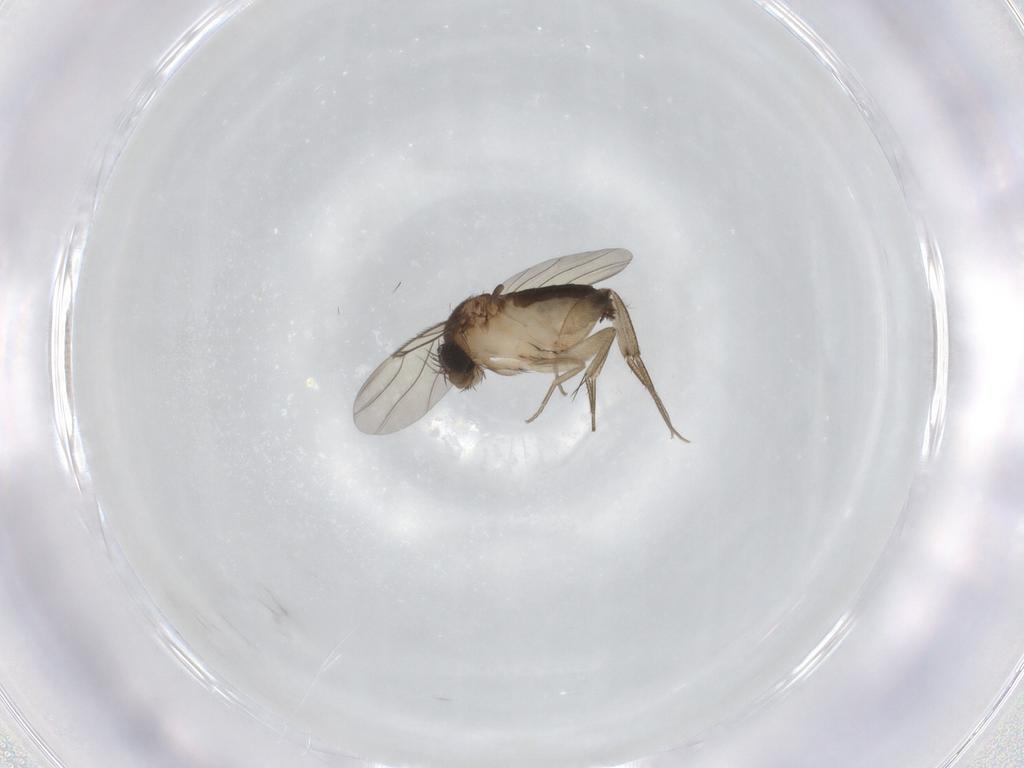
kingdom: Animalia
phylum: Arthropoda
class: Insecta
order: Diptera
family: Phoridae
